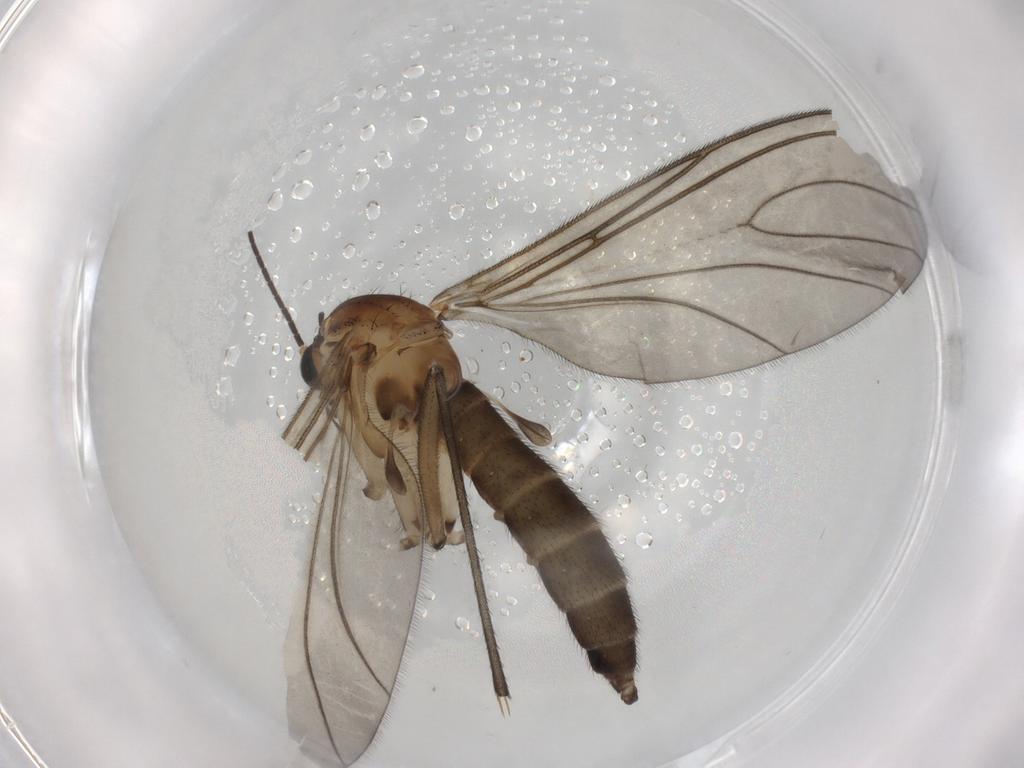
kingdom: Animalia
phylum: Arthropoda
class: Insecta
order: Diptera
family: Sciaridae
